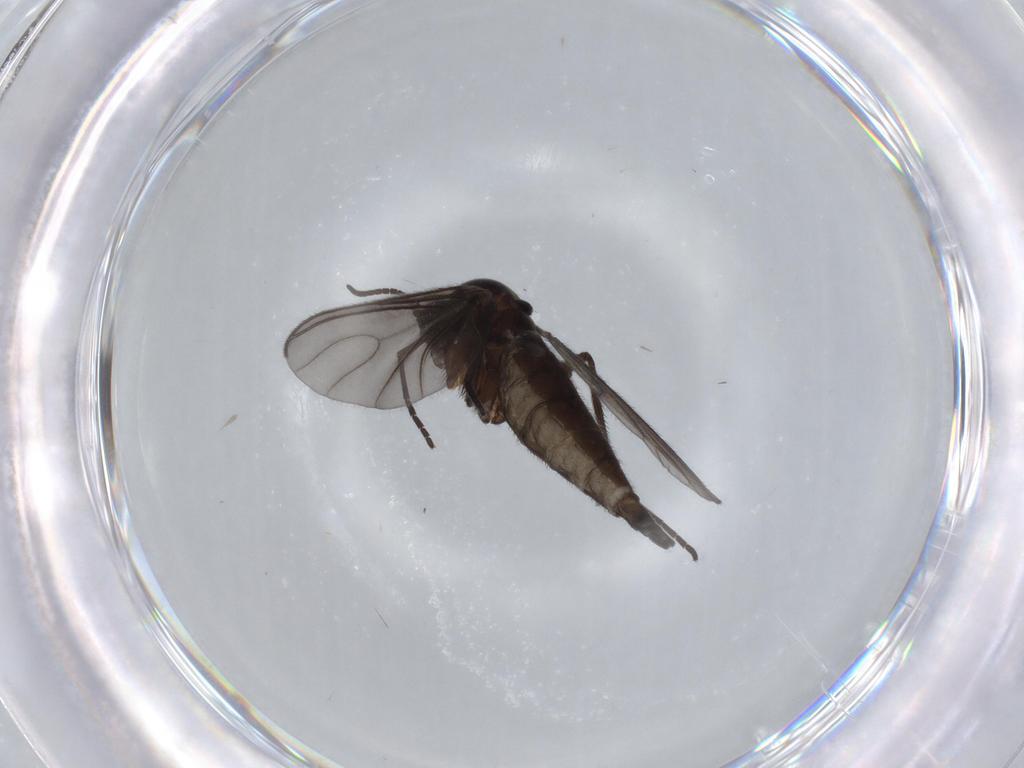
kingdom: Animalia
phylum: Arthropoda
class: Insecta
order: Diptera
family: Sciaridae
